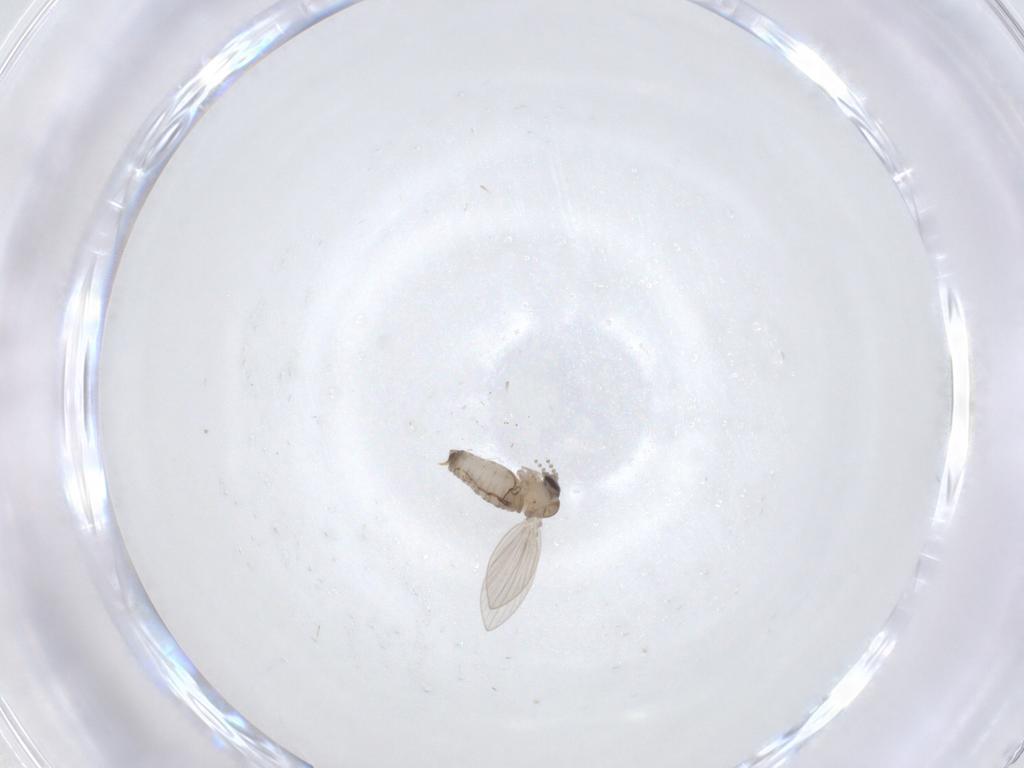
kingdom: Animalia
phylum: Arthropoda
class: Insecta
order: Diptera
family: Psychodidae
